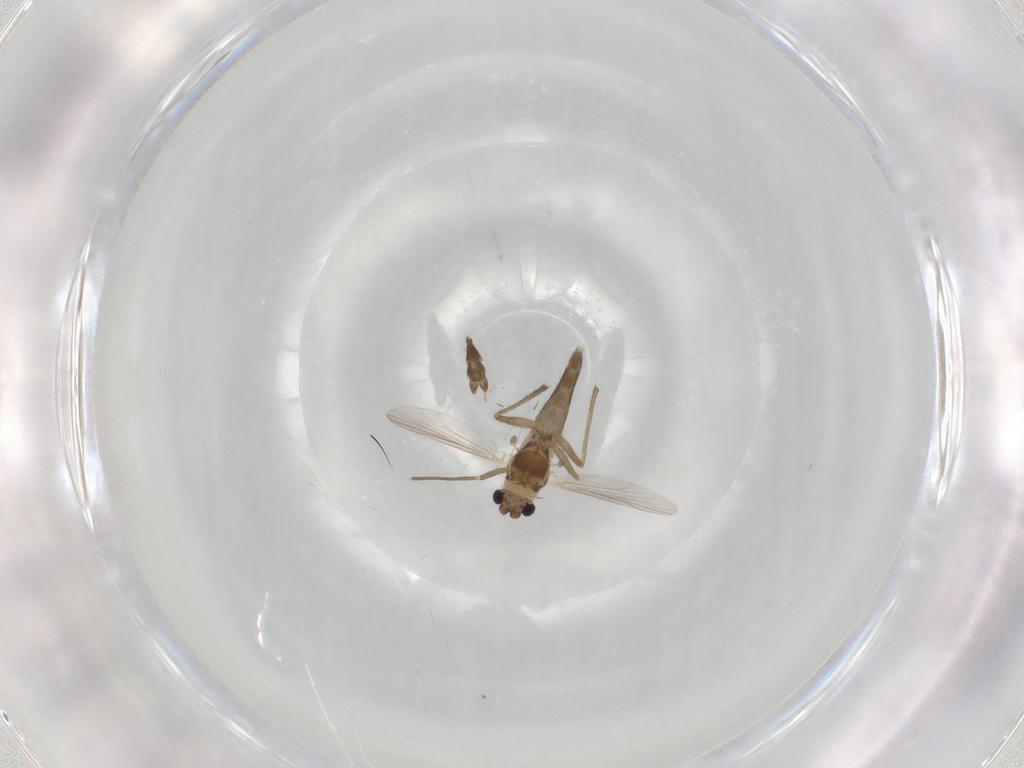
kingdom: Animalia
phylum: Arthropoda
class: Insecta
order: Diptera
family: Chironomidae
